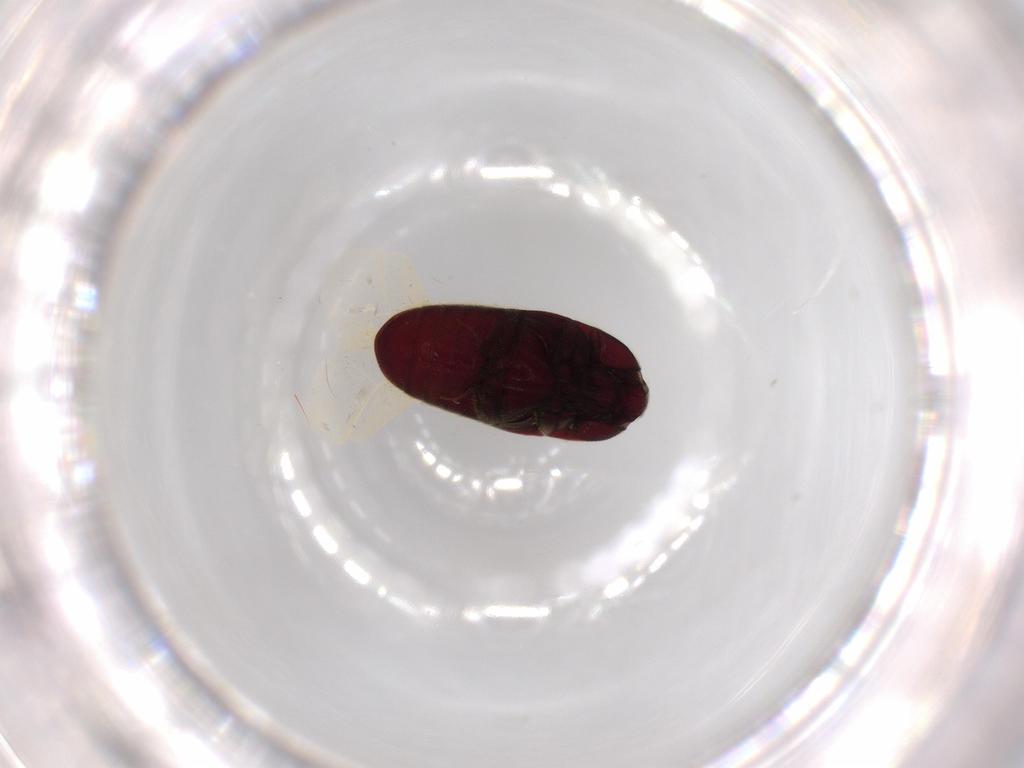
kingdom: Animalia
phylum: Arthropoda
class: Insecta
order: Coleoptera
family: Throscidae
